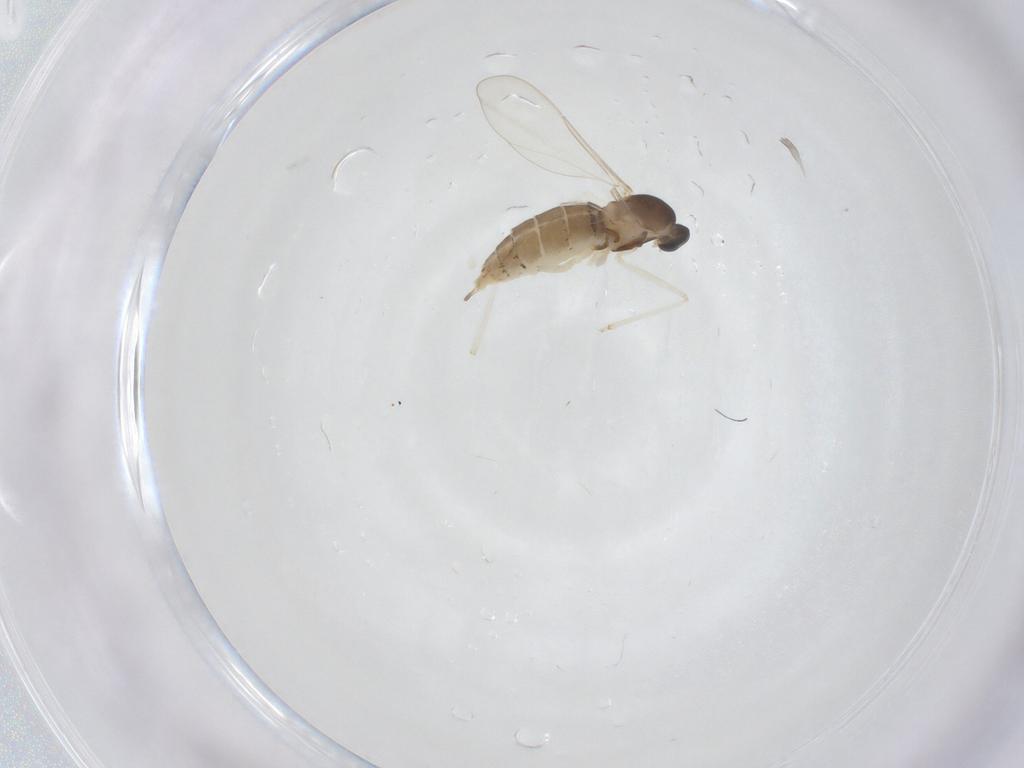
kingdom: Animalia
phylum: Arthropoda
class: Insecta
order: Diptera
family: Cecidomyiidae
